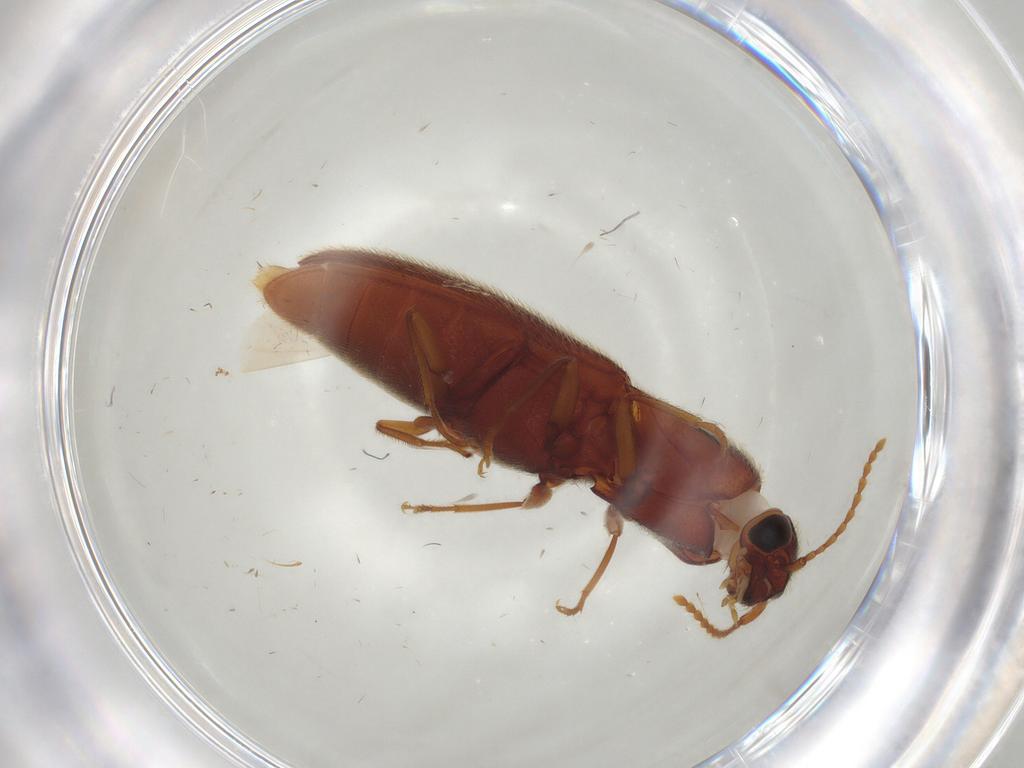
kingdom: Animalia
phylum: Arthropoda
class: Insecta
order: Coleoptera
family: Elateridae
